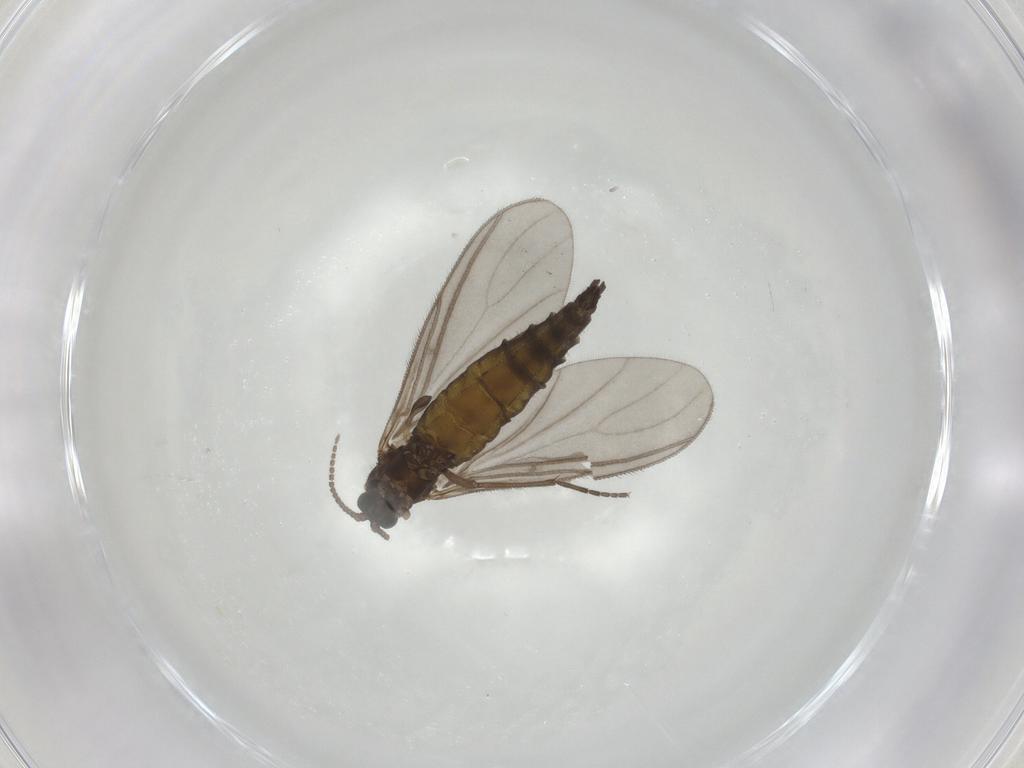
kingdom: Animalia
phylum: Arthropoda
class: Insecta
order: Diptera
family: Sciaridae
